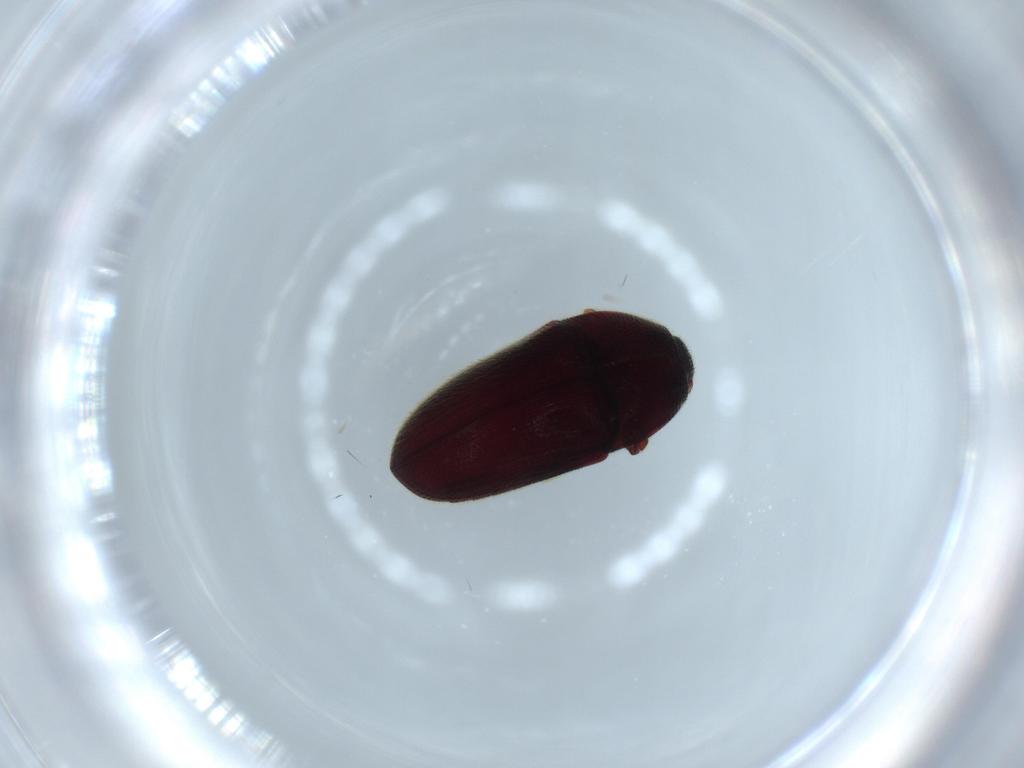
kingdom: Animalia
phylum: Arthropoda
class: Insecta
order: Coleoptera
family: Throscidae
